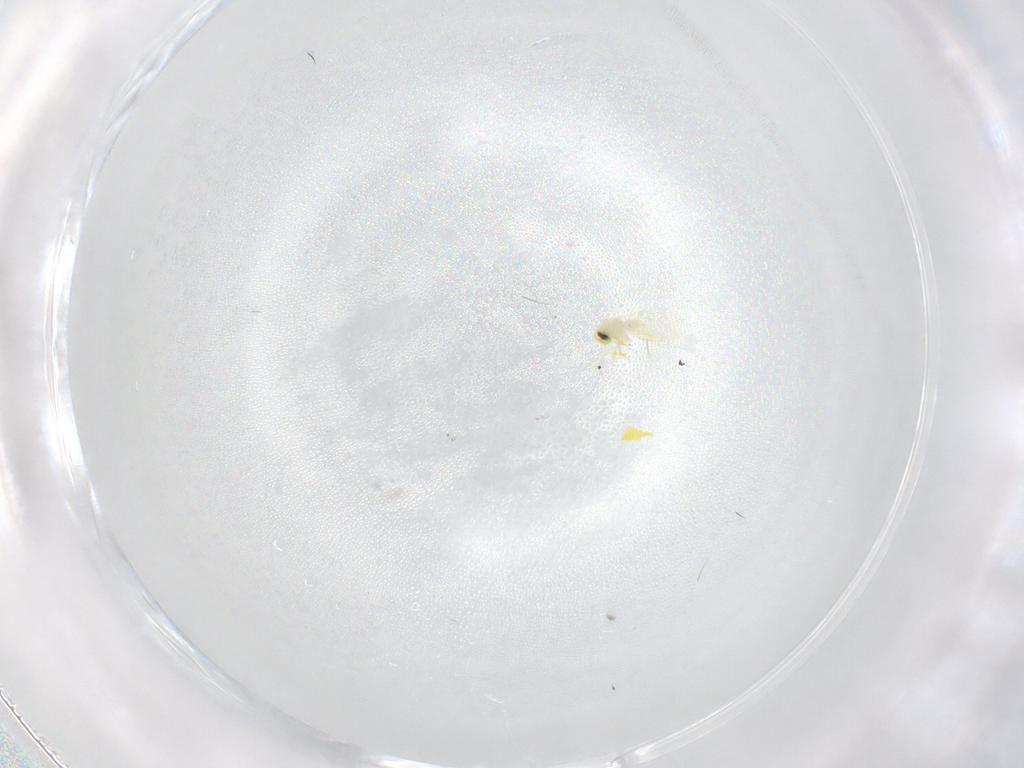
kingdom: Animalia
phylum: Arthropoda
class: Insecta
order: Hemiptera
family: Aleyrodidae
